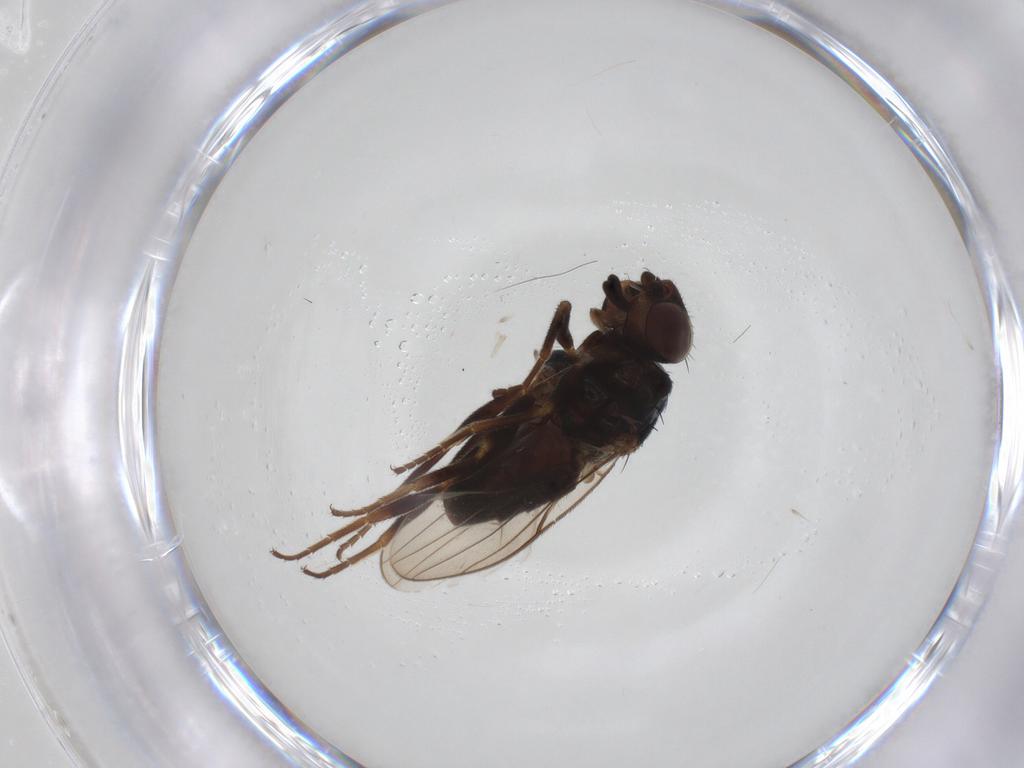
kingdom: Animalia
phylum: Arthropoda
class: Insecta
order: Diptera
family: Chloropidae
